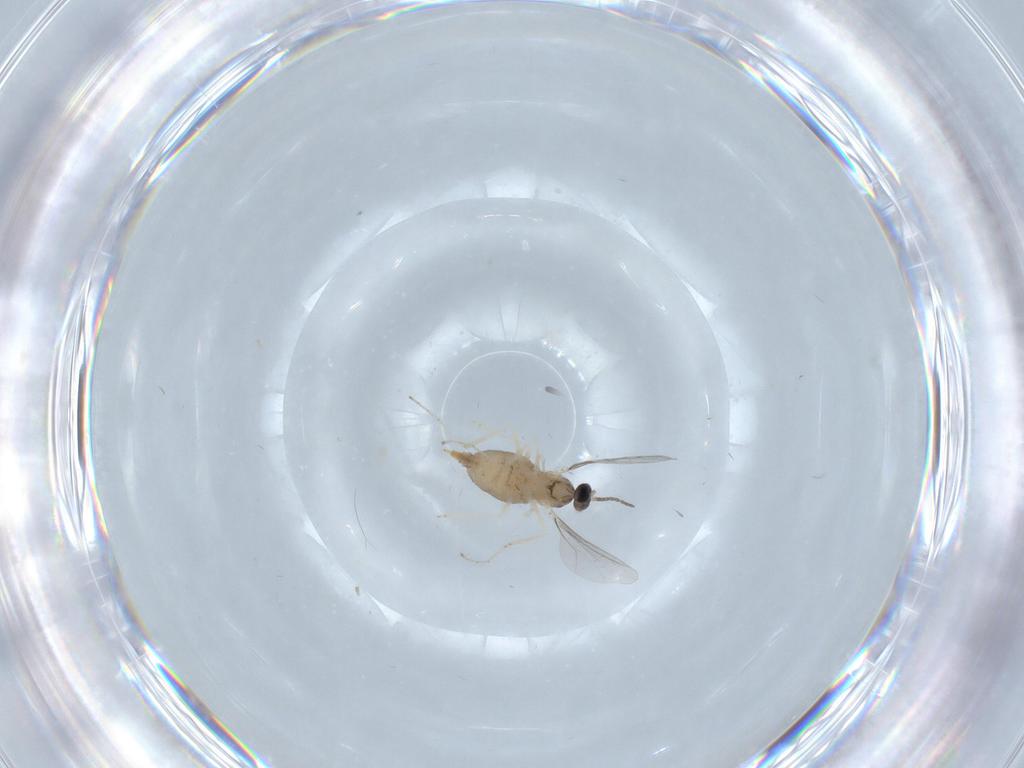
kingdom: Animalia
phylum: Arthropoda
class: Insecta
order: Diptera
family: Cecidomyiidae
